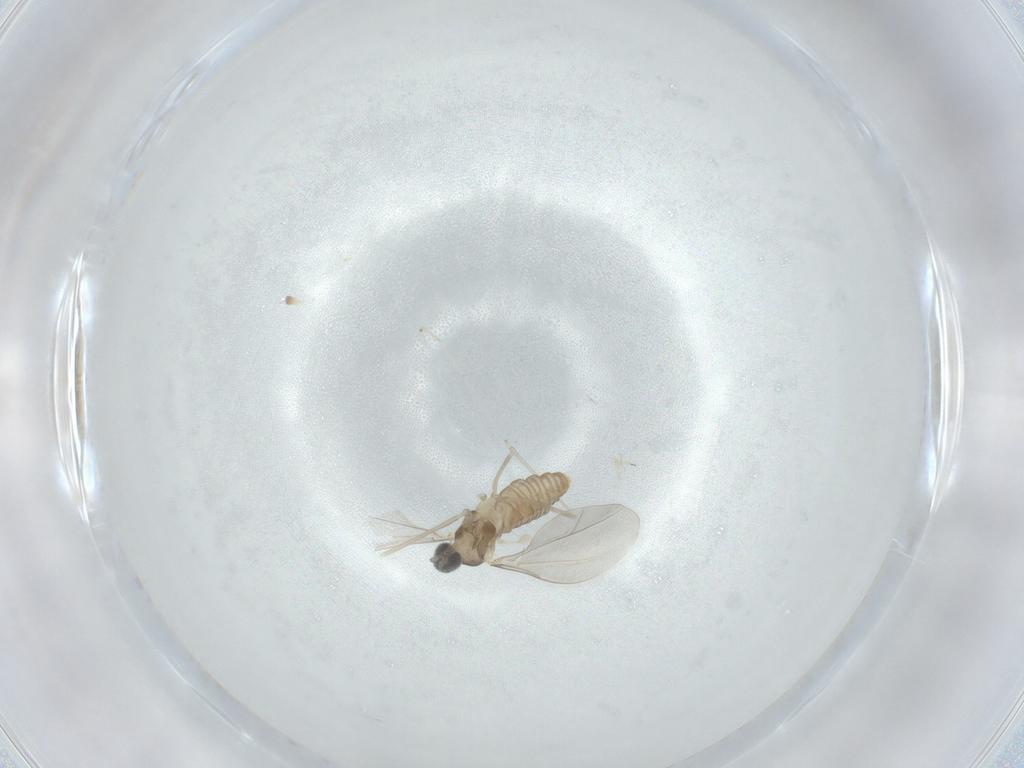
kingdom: Animalia
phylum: Arthropoda
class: Insecta
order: Diptera
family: Cecidomyiidae
